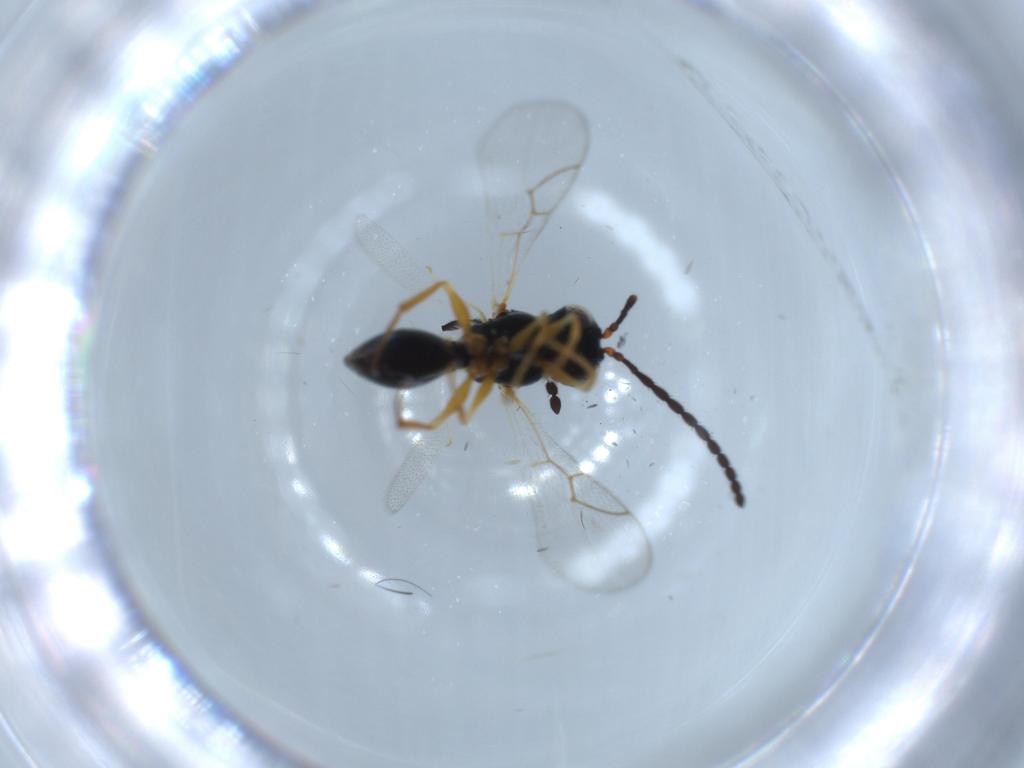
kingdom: Animalia
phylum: Arthropoda
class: Insecta
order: Hymenoptera
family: Figitidae
